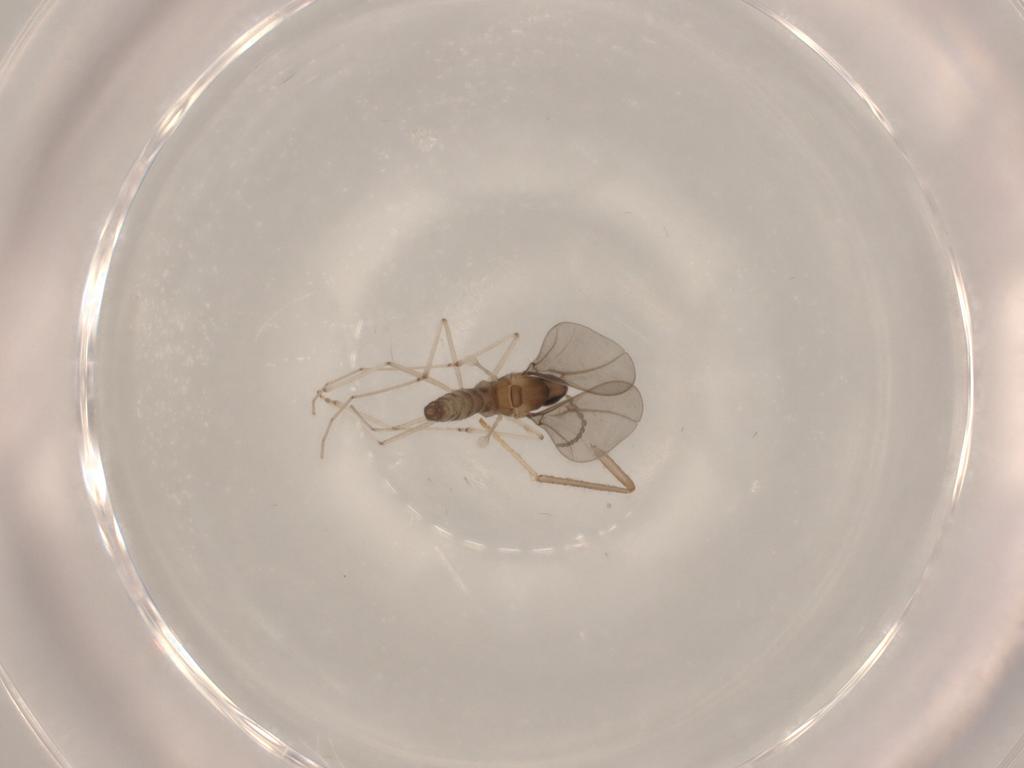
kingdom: Animalia
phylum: Arthropoda
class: Insecta
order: Diptera
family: Cecidomyiidae
